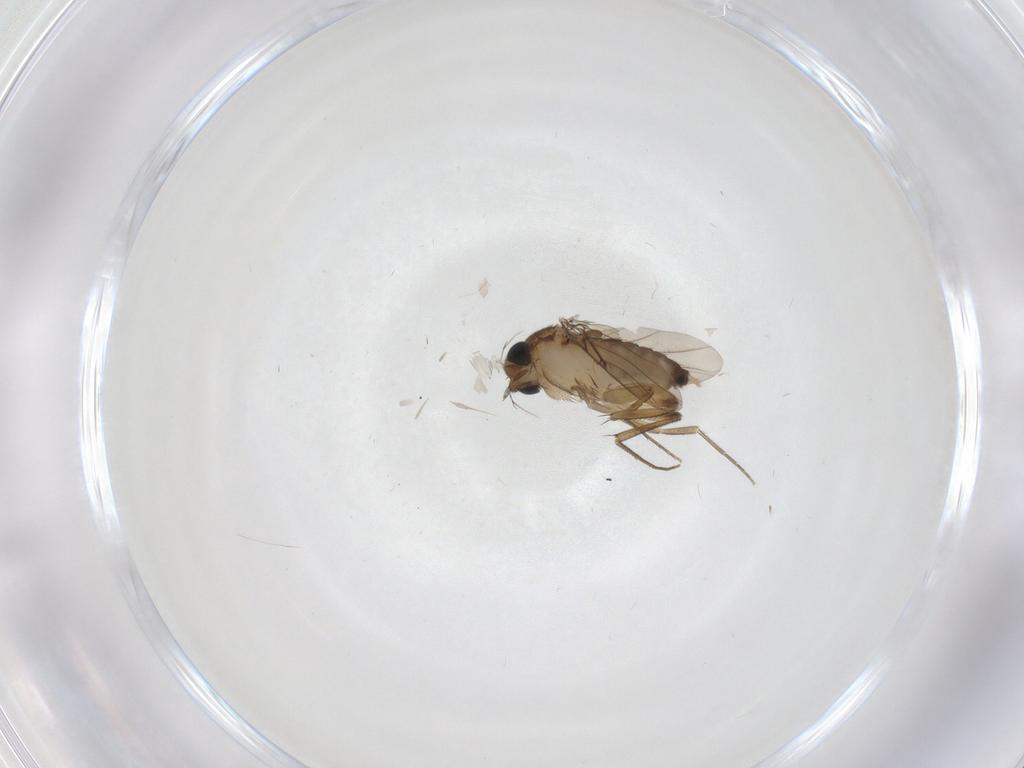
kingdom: Animalia
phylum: Arthropoda
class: Insecta
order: Diptera
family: Phoridae
